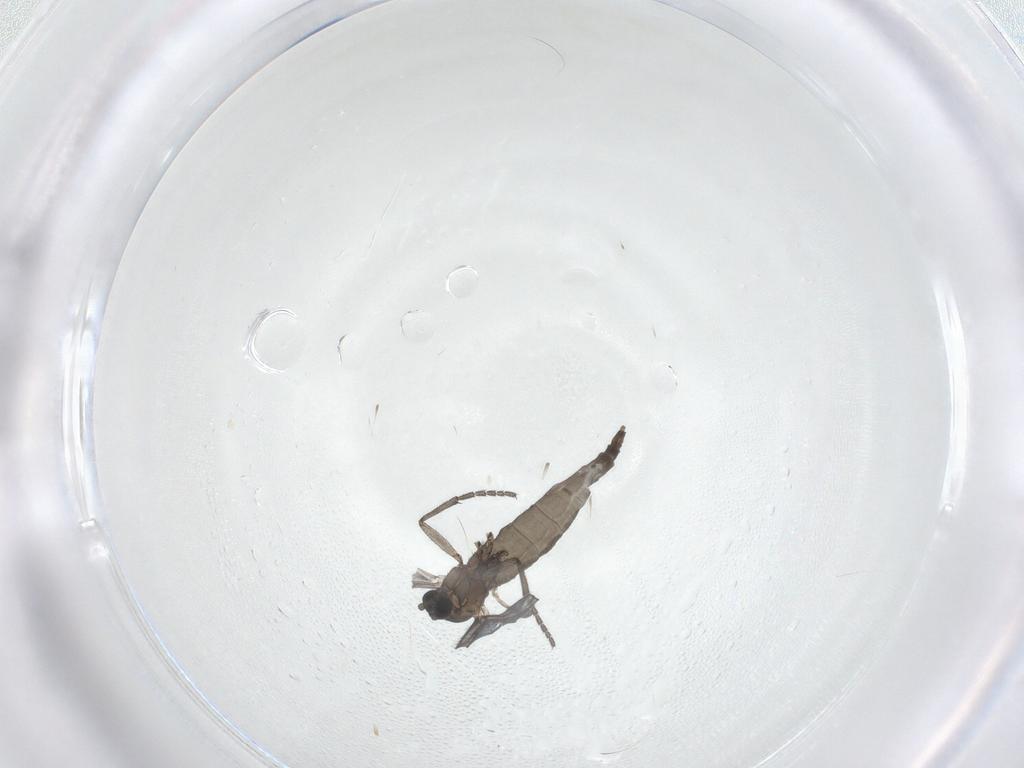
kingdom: Animalia
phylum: Arthropoda
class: Insecta
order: Diptera
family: Sciaridae
